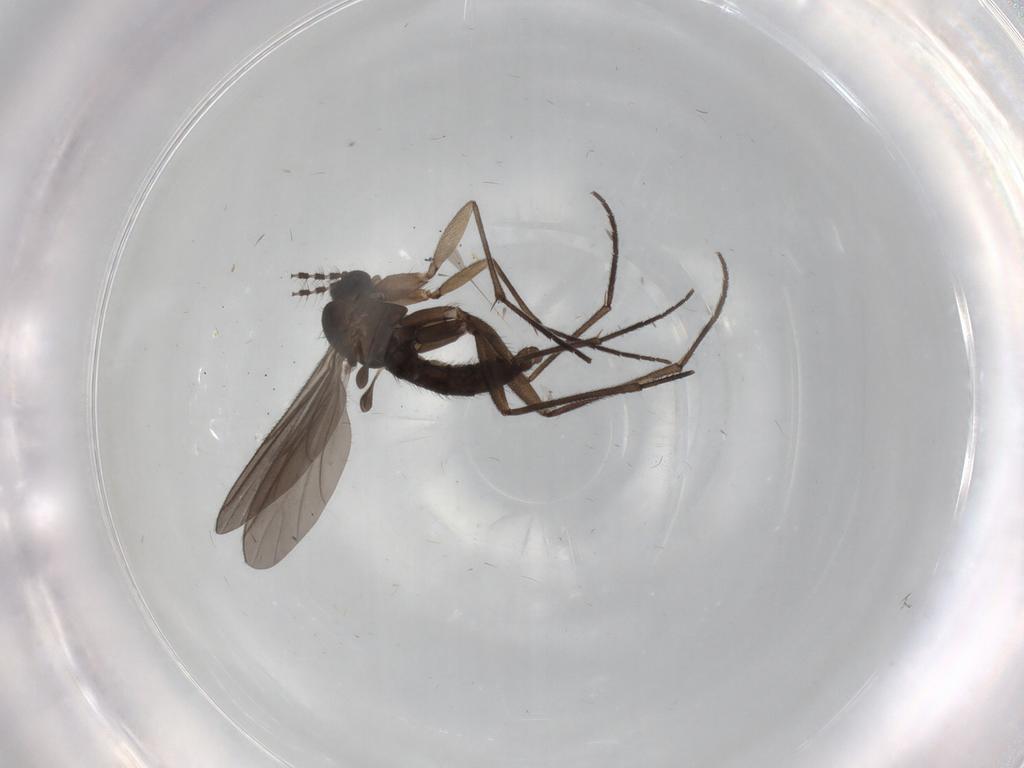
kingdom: Animalia
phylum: Arthropoda
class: Insecta
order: Diptera
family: Sciaridae
